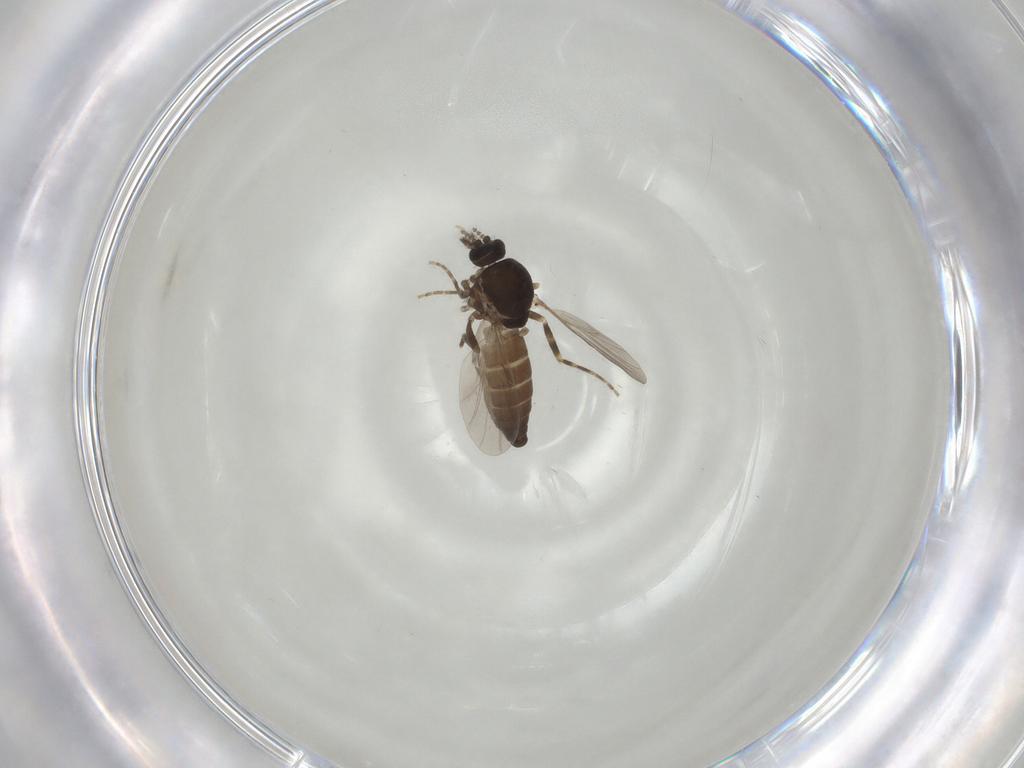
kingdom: Animalia
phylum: Arthropoda
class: Insecta
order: Diptera
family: Ceratopogonidae
